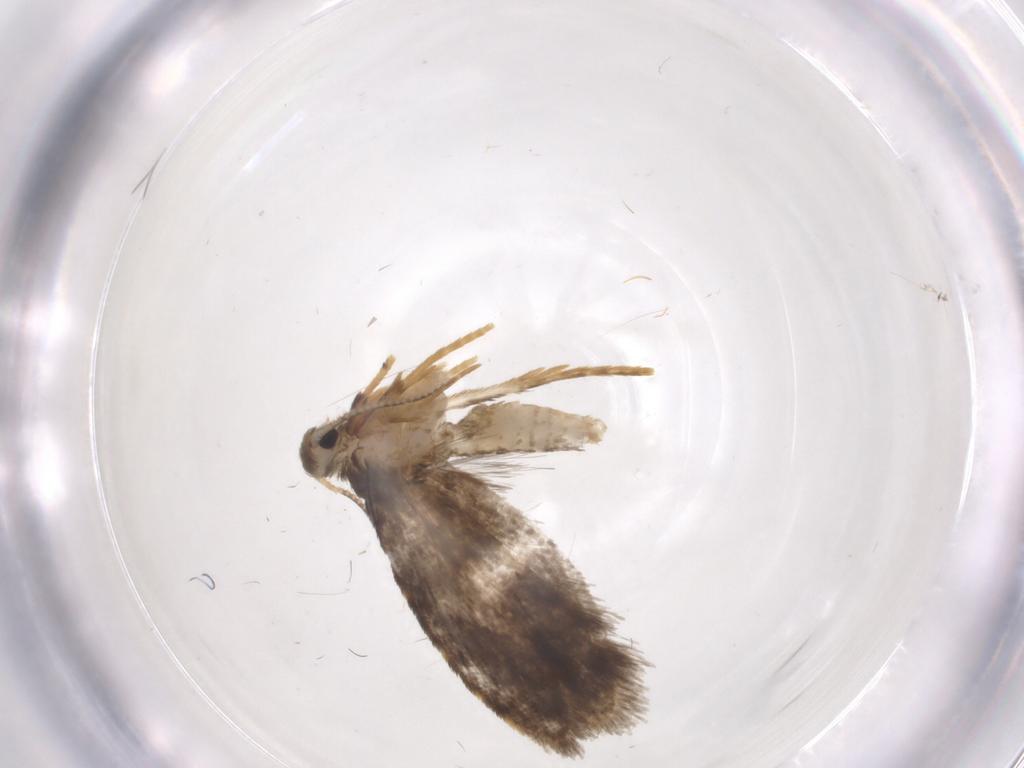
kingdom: Animalia
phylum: Arthropoda
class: Insecta
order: Lepidoptera
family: Psychidae
